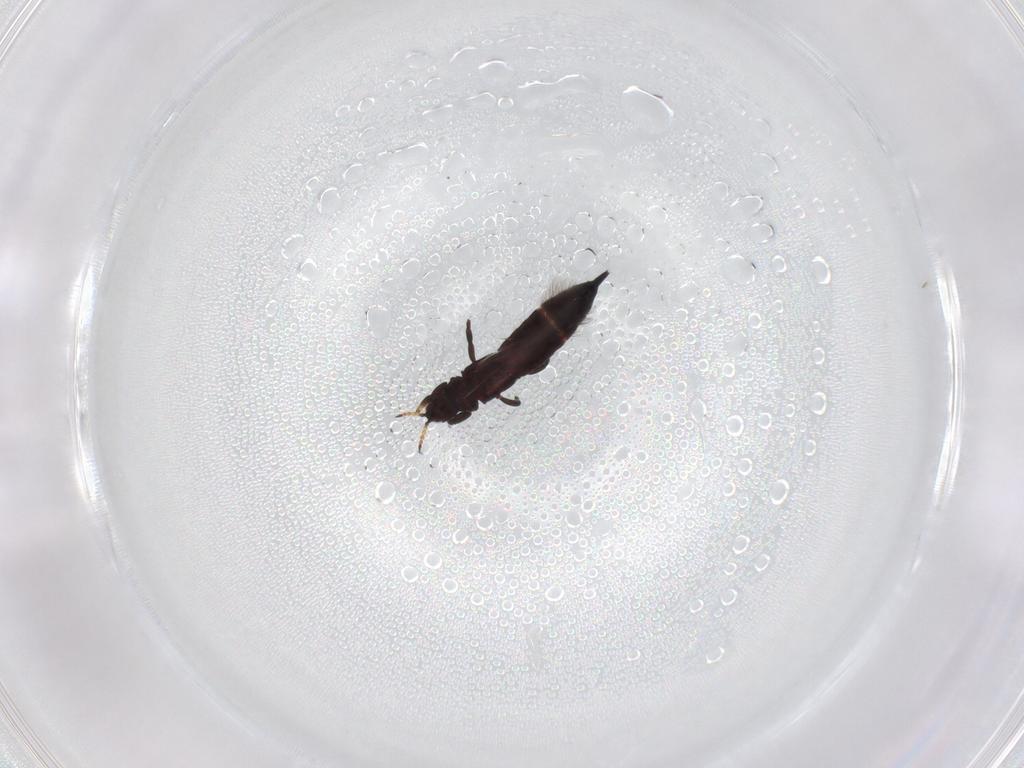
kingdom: Animalia
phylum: Arthropoda
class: Insecta
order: Thysanoptera
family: Phlaeothripidae
